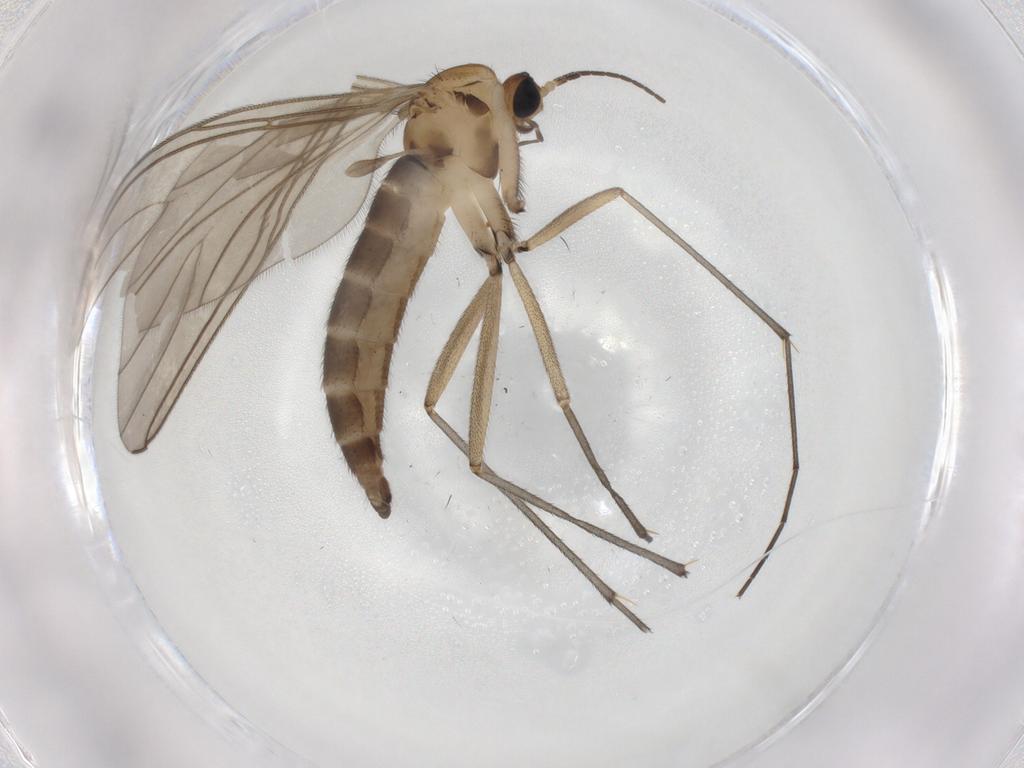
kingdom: Animalia
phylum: Arthropoda
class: Insecta
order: Diptera
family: Sciaridae
